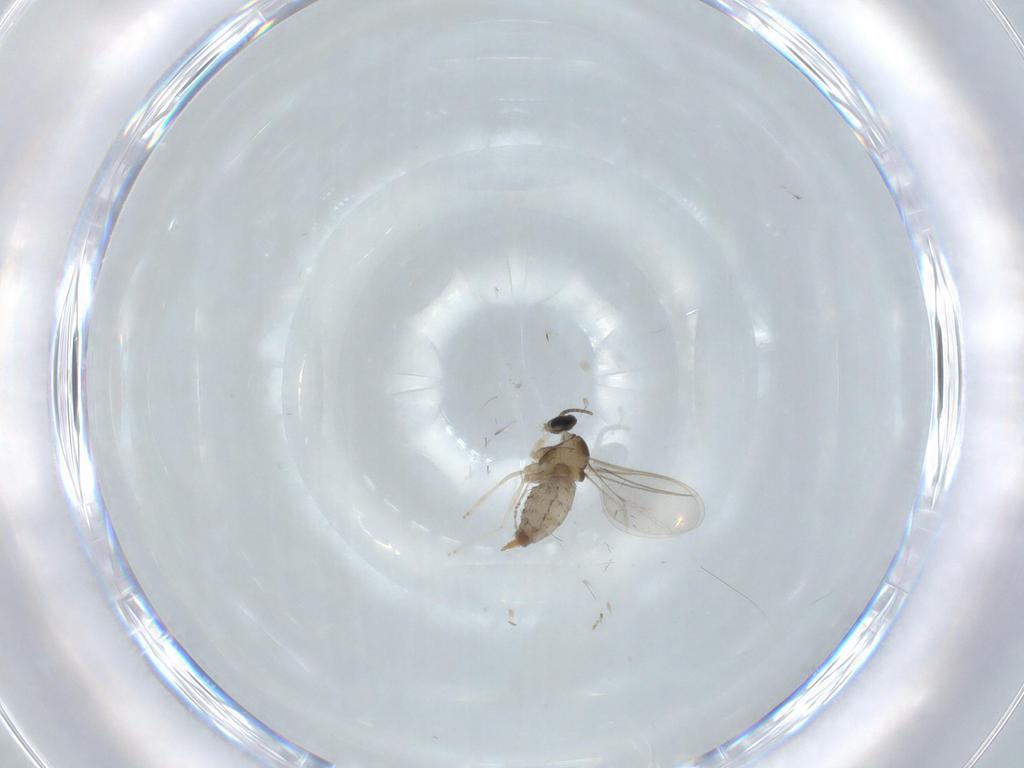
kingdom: Animalia
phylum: Arthropoda
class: Insecta
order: Diptera
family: Cecidomyiidae
